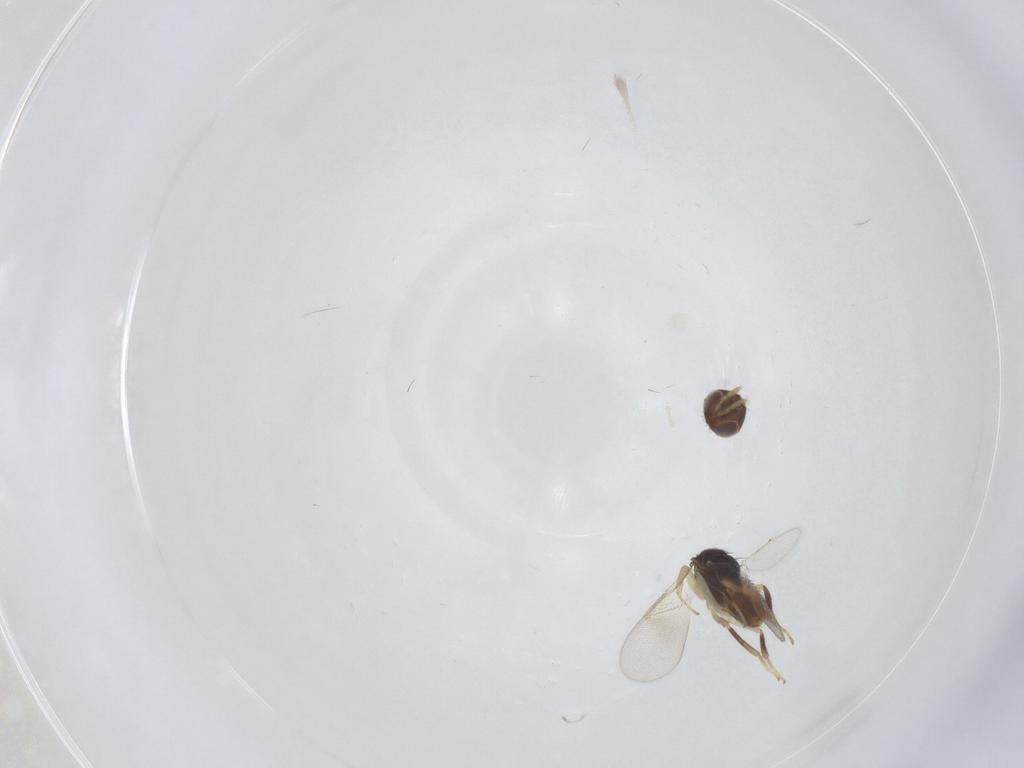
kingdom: Animalia
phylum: Arthropoda
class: Insecta
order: Hymenoptera
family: Aphelinidae
